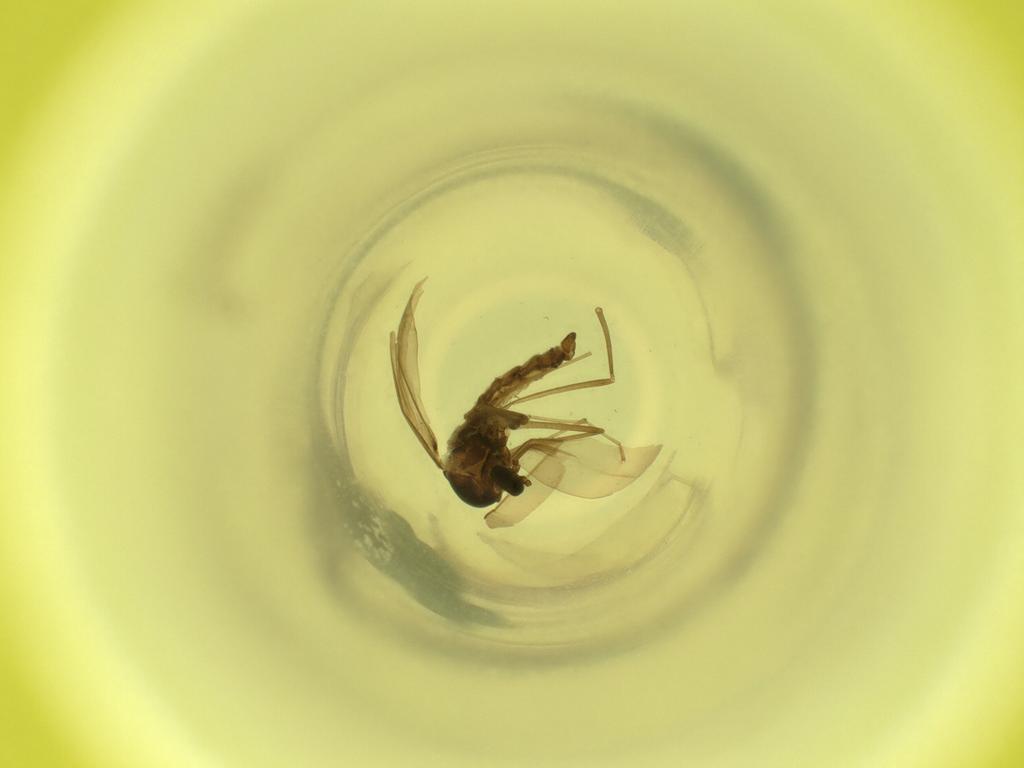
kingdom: Animalia
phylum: Arthropoda
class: Insecta
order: Diptera
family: Cecidomyiidae
